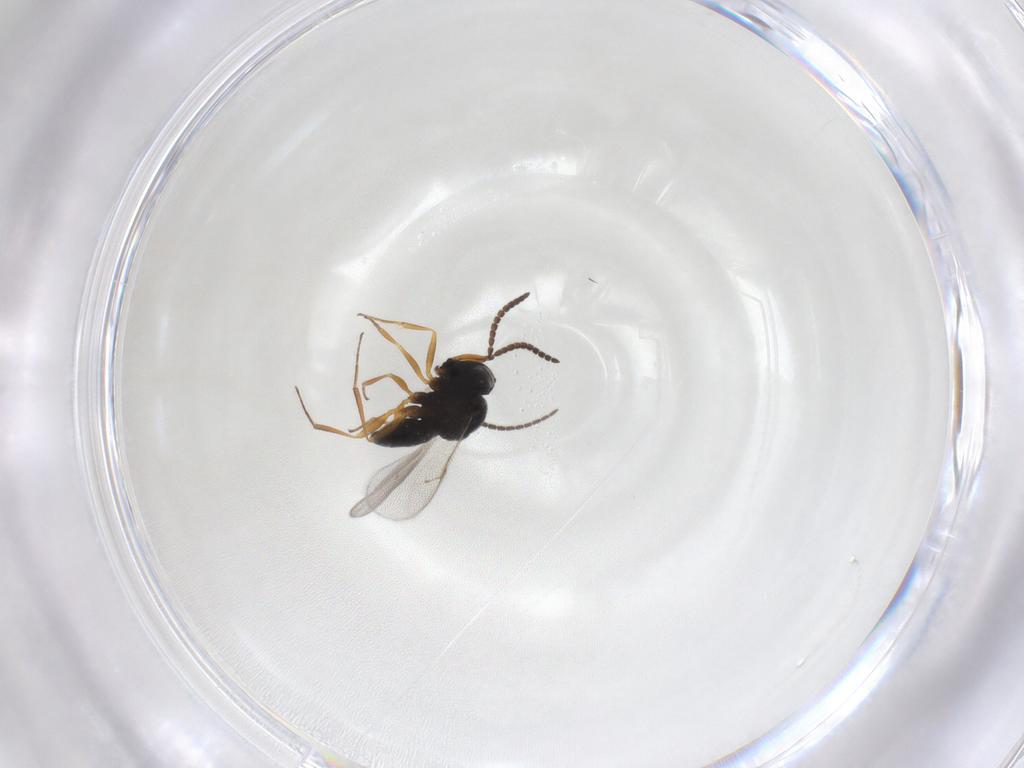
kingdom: Animalia
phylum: Arthropoda
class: Insecta
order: Hymenoptera
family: Scelionidae
